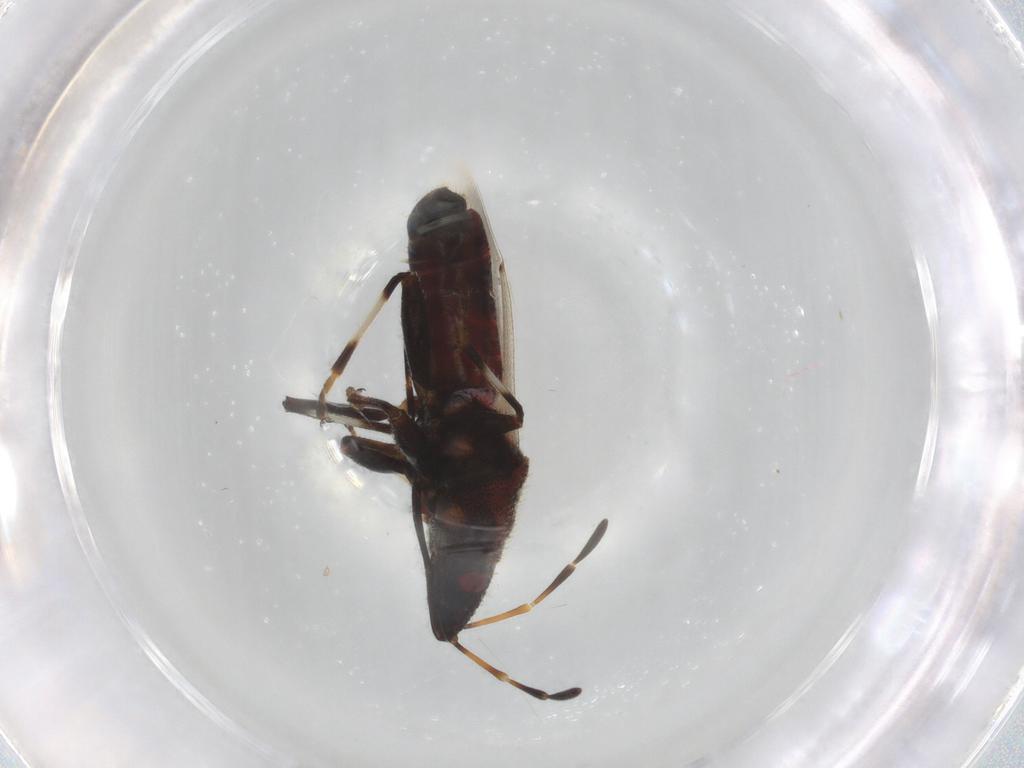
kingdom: Animalia
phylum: Arthropoda
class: Insecta
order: Hemiptera
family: Oxycarenidae
